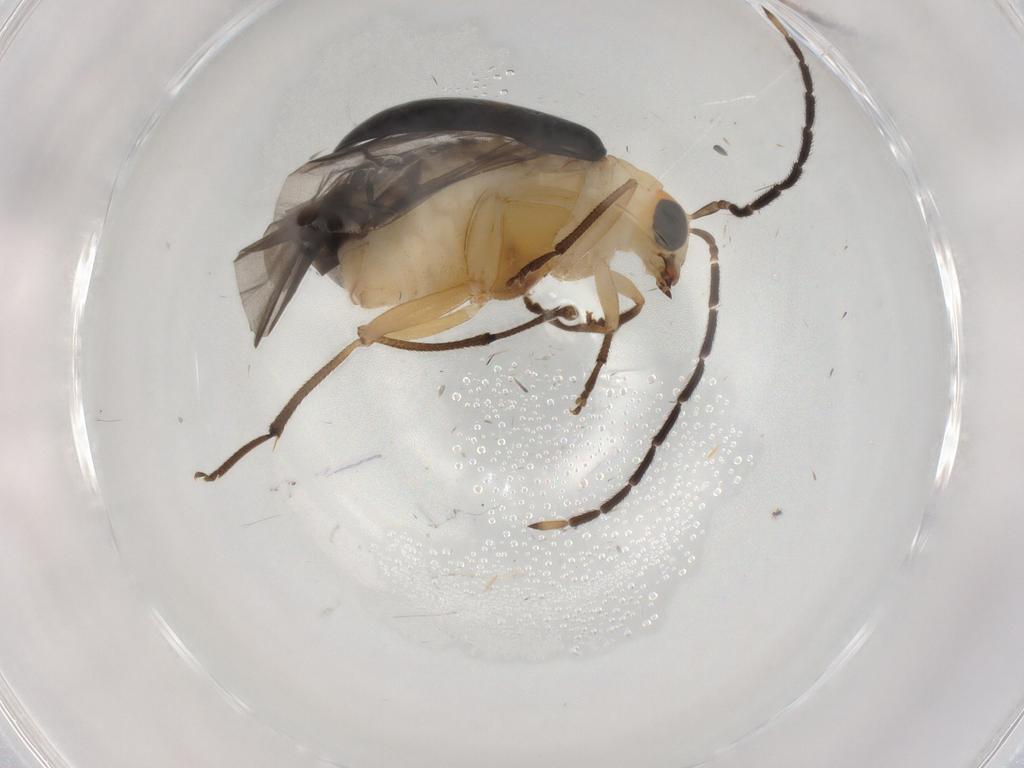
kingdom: Animalia
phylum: Arthropoda
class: Insecta
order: Coleoptera
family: Chrysomelidae
